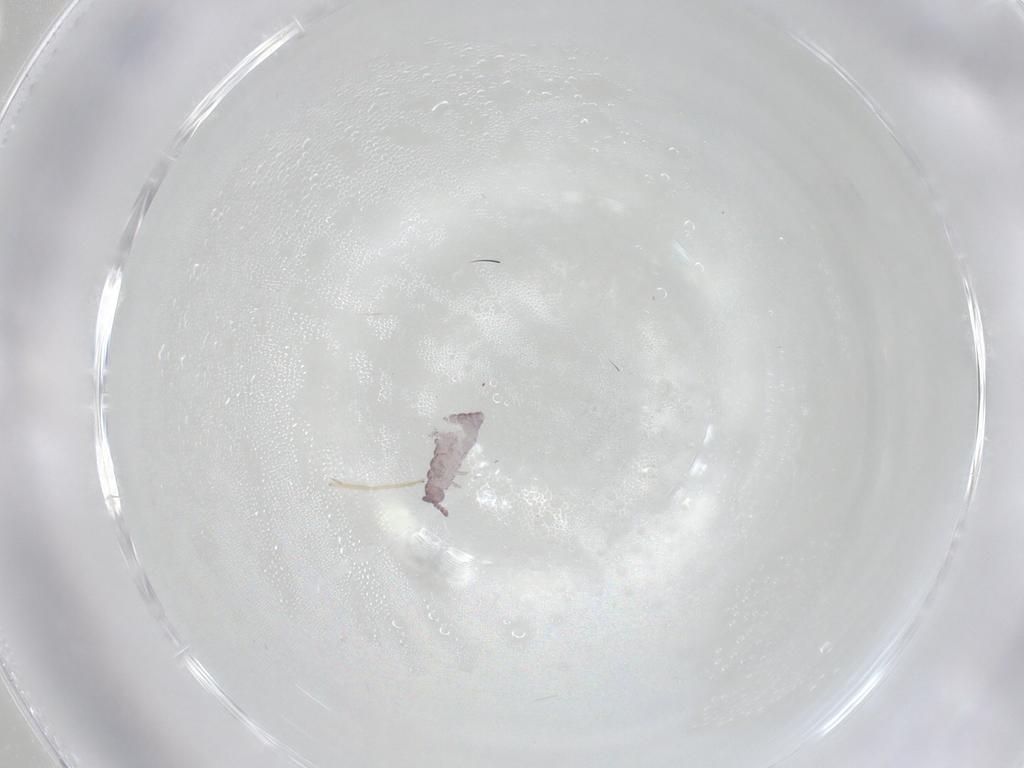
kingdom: Animalia
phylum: Arthropoda
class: Collembola
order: Poduromorpha
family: Hypogastruridae
